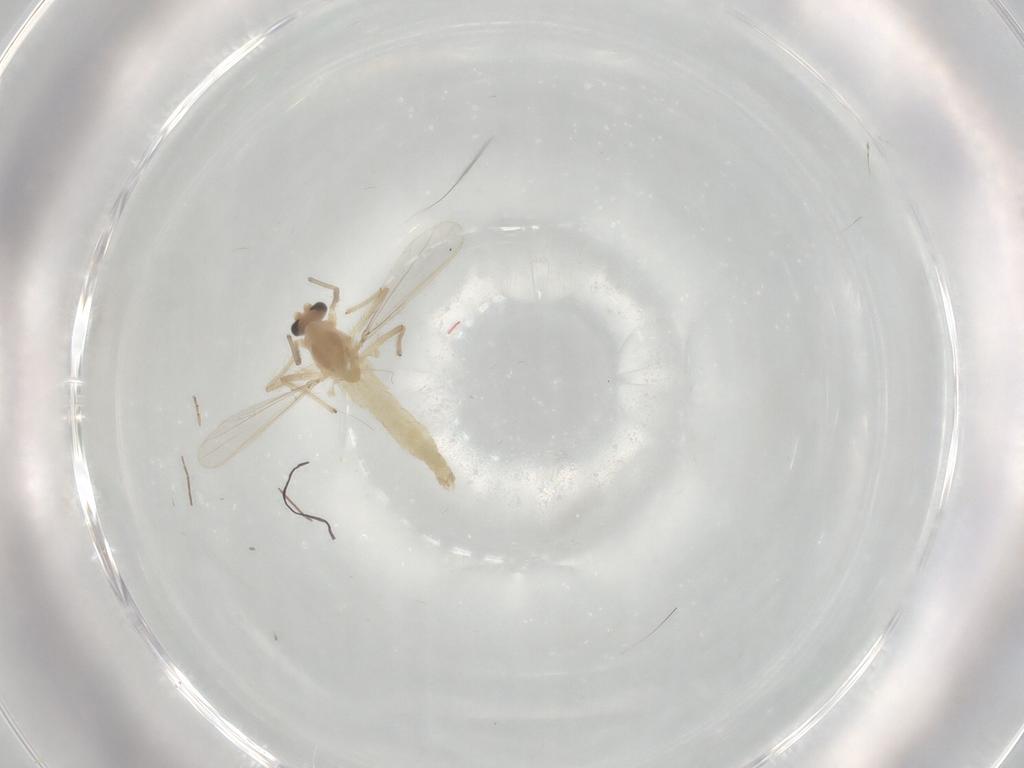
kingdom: Animalia
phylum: Arthropoda
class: Insecta
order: Diptera
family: Chironomidae
